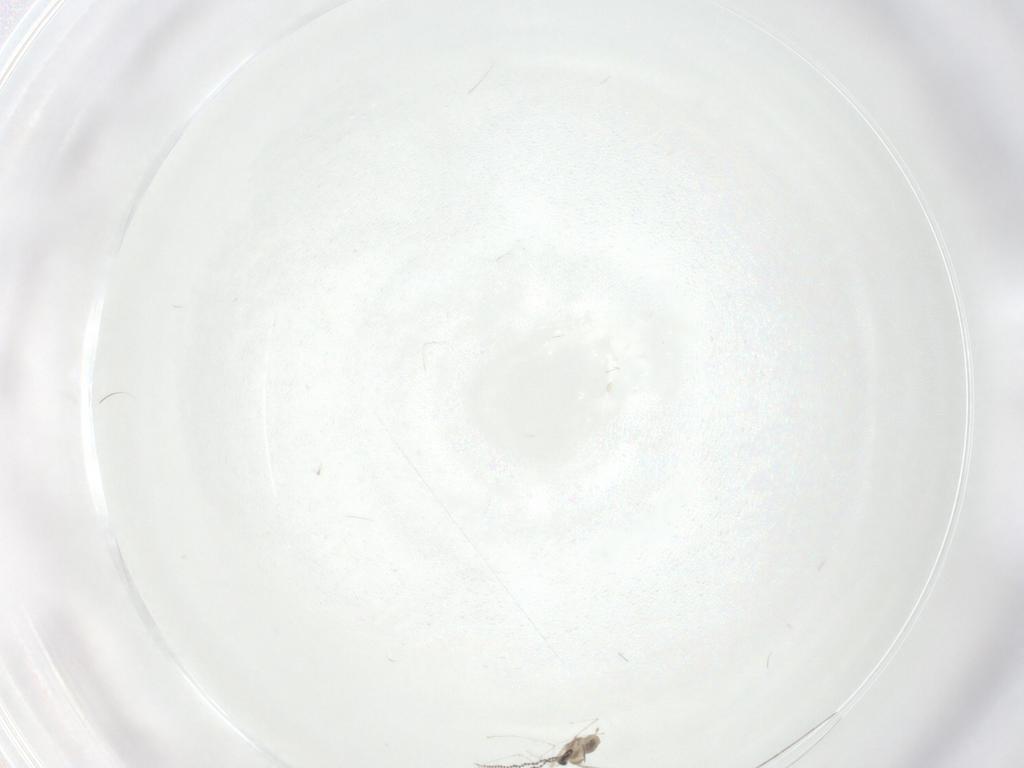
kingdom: Animalia
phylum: Arthropoda
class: Insecta
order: Diptera
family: Cecidomyiidae
